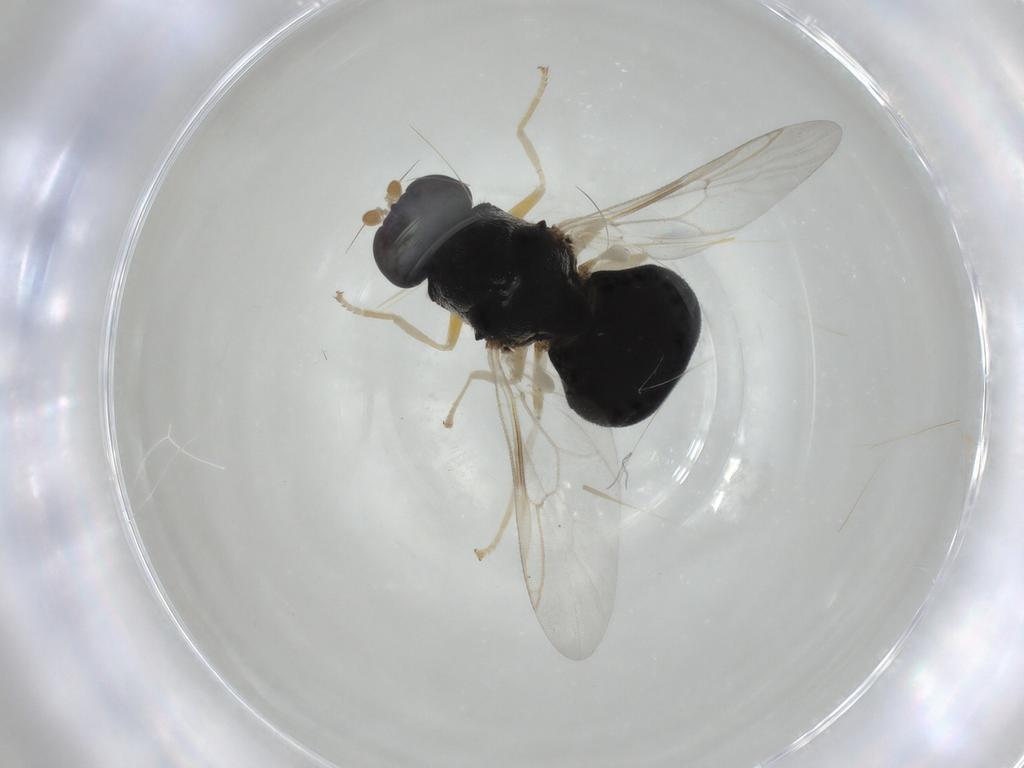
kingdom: Animalia
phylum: Arthropoda
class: Insecta
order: Diptera
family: Stratiomyidae
